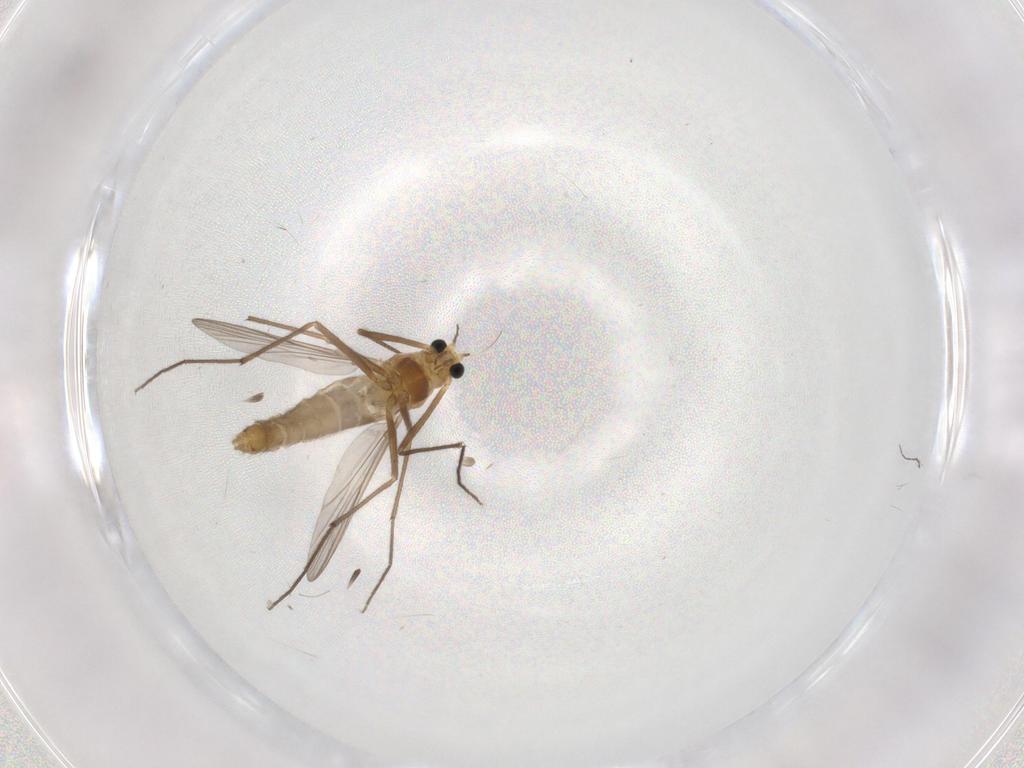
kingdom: Animalia
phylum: Arthropoda
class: Insecta
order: Diptera
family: Chironomidae
